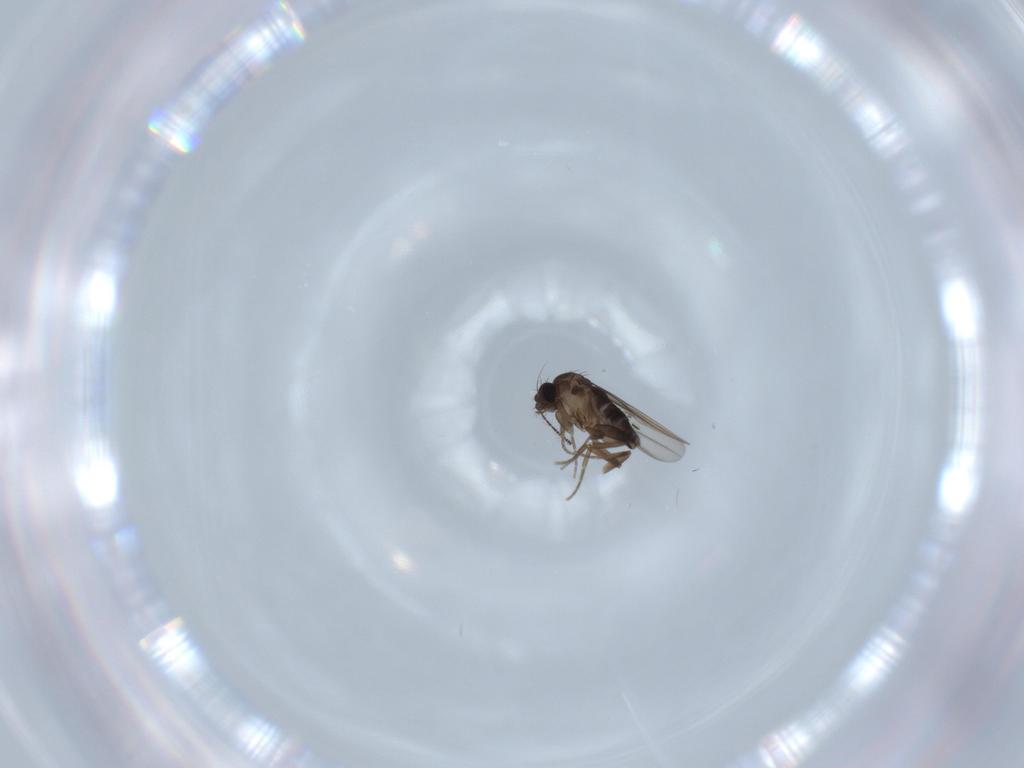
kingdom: Animalia
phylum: Arthropoda
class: Insecta
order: Diptera
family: Phoridae
